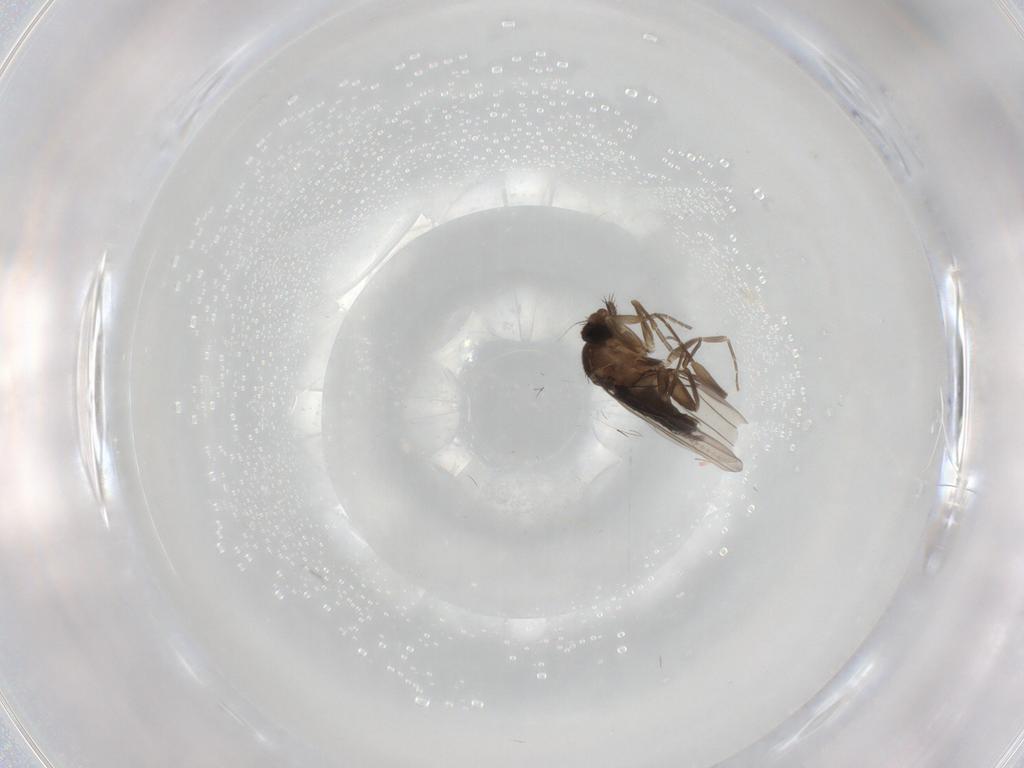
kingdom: Animalia
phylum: Arthropoda
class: Insecta
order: Diptera
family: Phoridae
